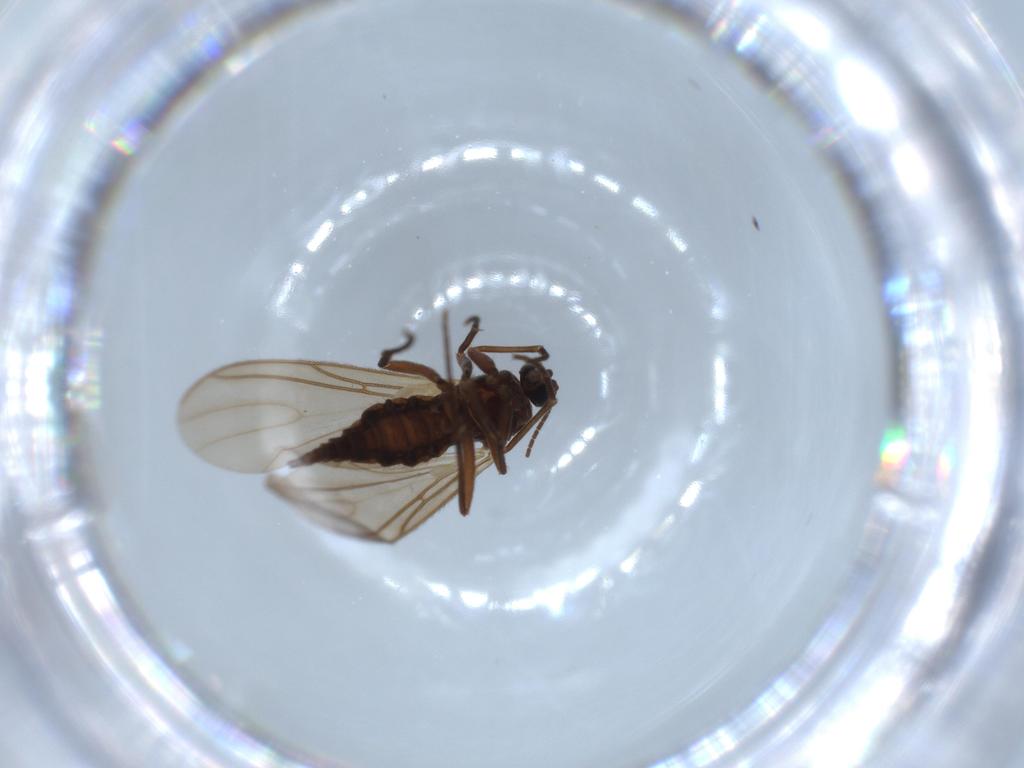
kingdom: Animalia
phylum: Arthropoda
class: Insecta
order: Diptera
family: Cecidomyiidae
